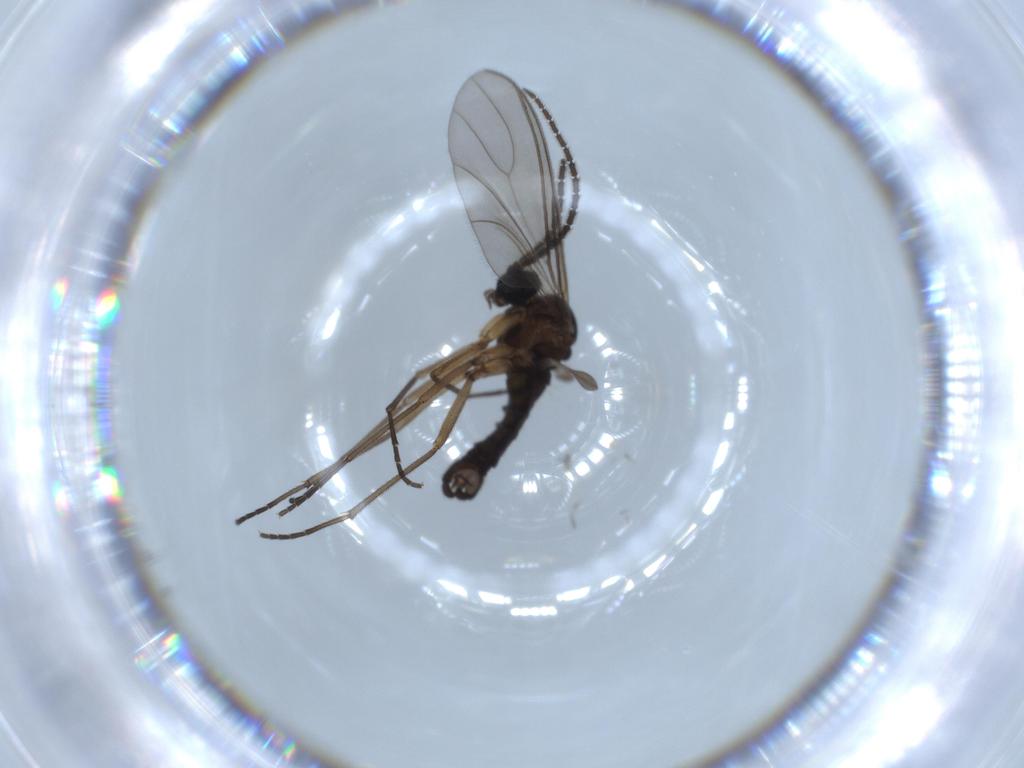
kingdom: Animalia
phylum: Arthropoda
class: Insecta
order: Diptera
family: Sciaridae
